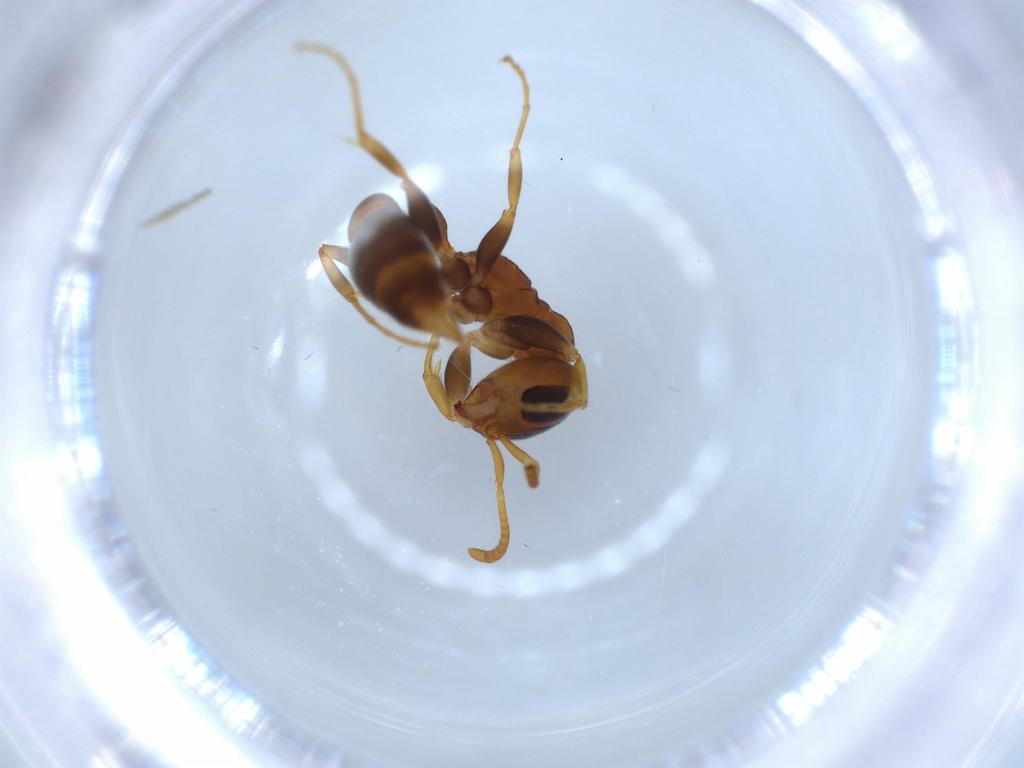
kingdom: Animalia
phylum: Arthropoda
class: Insecta
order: Hymenoptera
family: Formicidae
